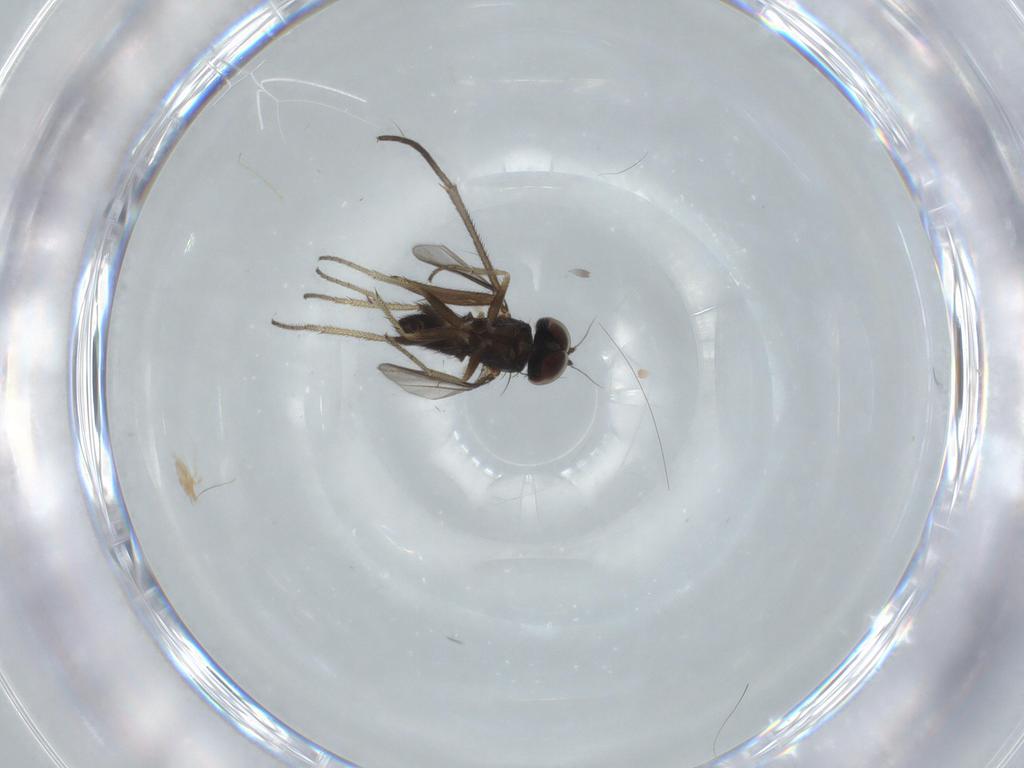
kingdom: Animalia
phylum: Arthropoda
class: Insecta
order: Diptera
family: Sciaridae
